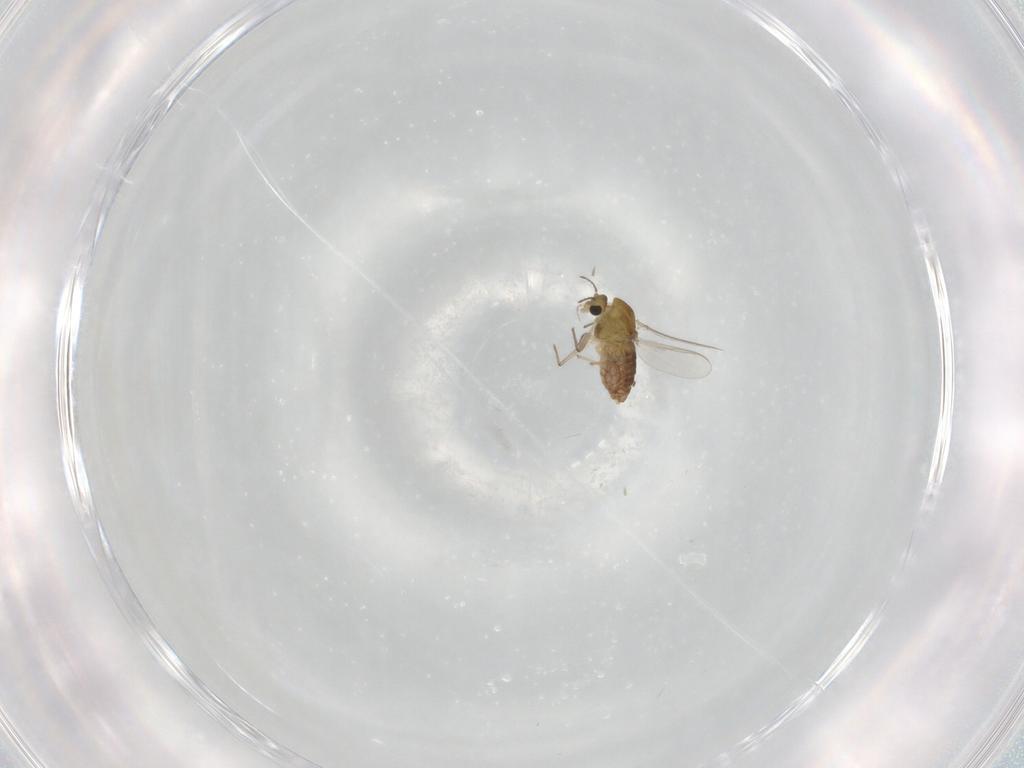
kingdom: Animalia
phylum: Arthropoda
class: Insecta
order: Diptera
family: Chironomidae
